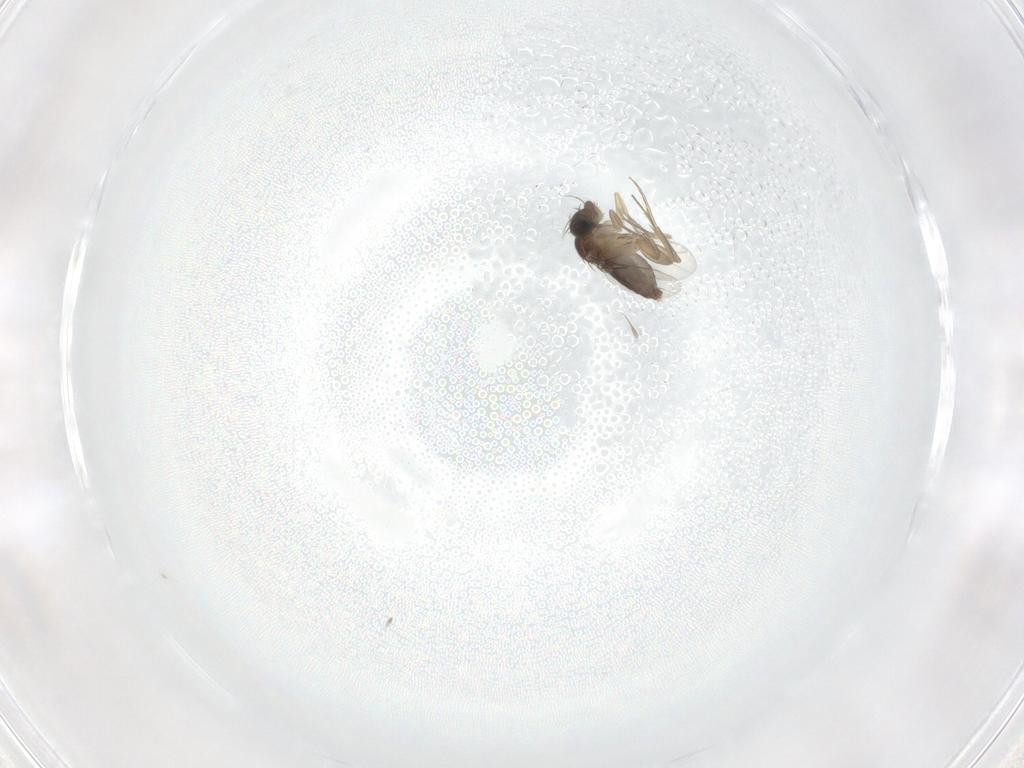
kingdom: Animalia
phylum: Arthropoda
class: Insecta
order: Diptera
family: Phoridae
